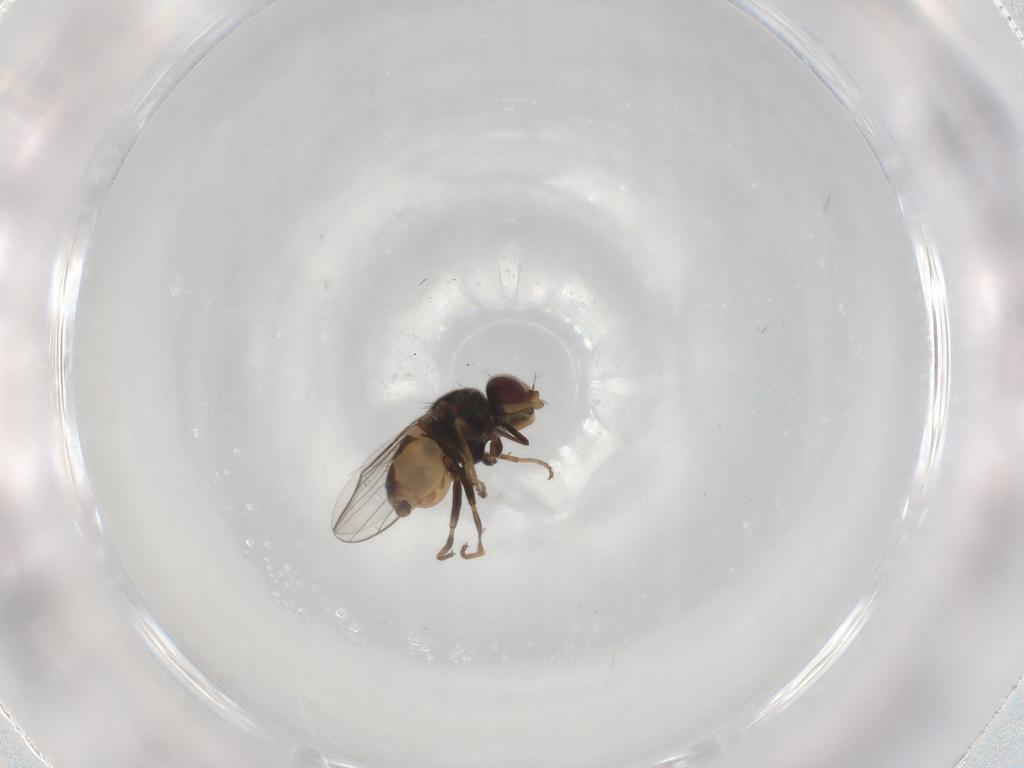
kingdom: Animalia
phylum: Arthropoda
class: Insecta
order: Diptera
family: Chloropidae
